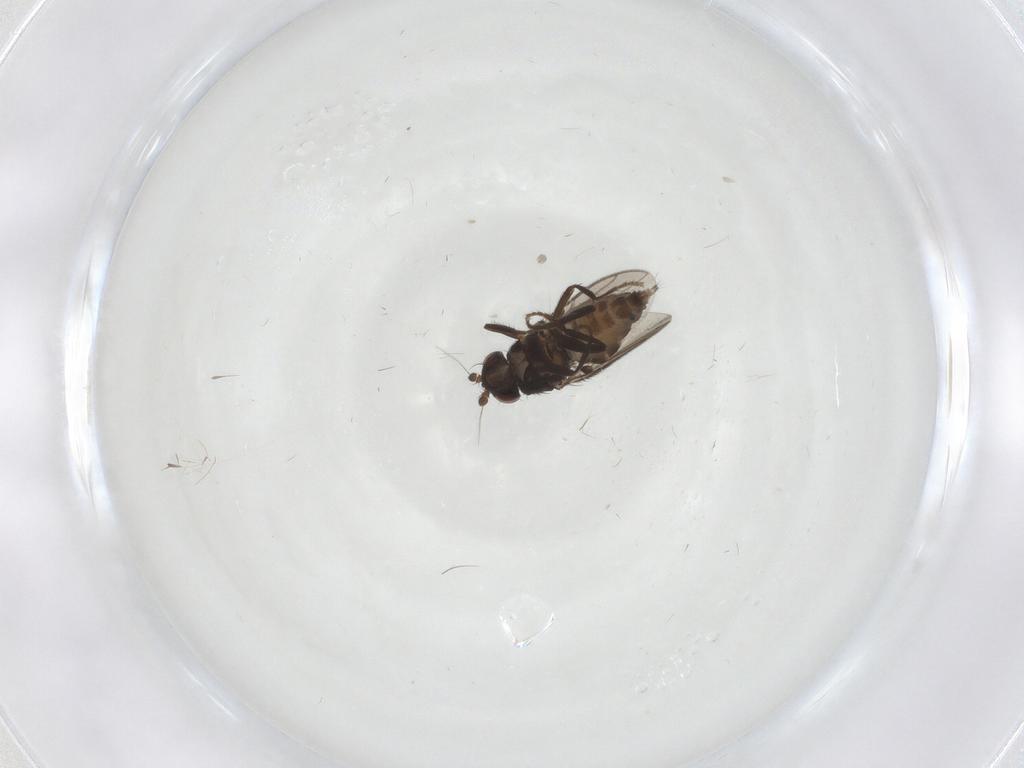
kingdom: Animalia
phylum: Arthropoda
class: Insecta
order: Diptera
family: Sphaeroceridae
